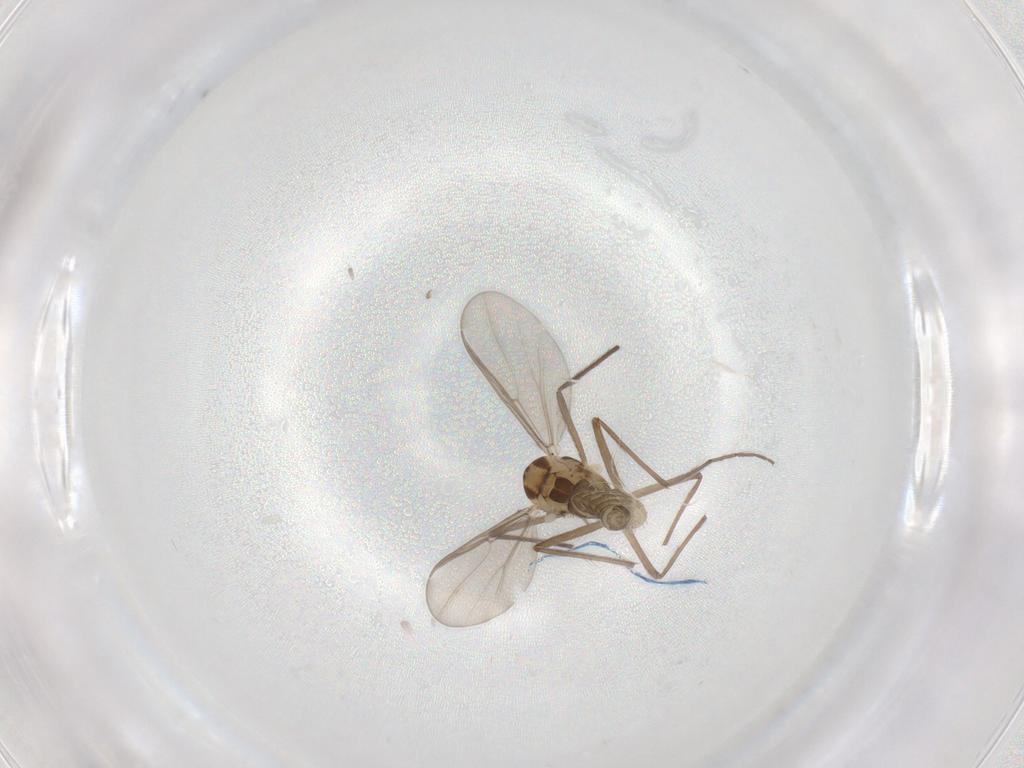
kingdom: Animalia
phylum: Arthropoda
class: Insecta
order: Diptera
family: Chironomidae
